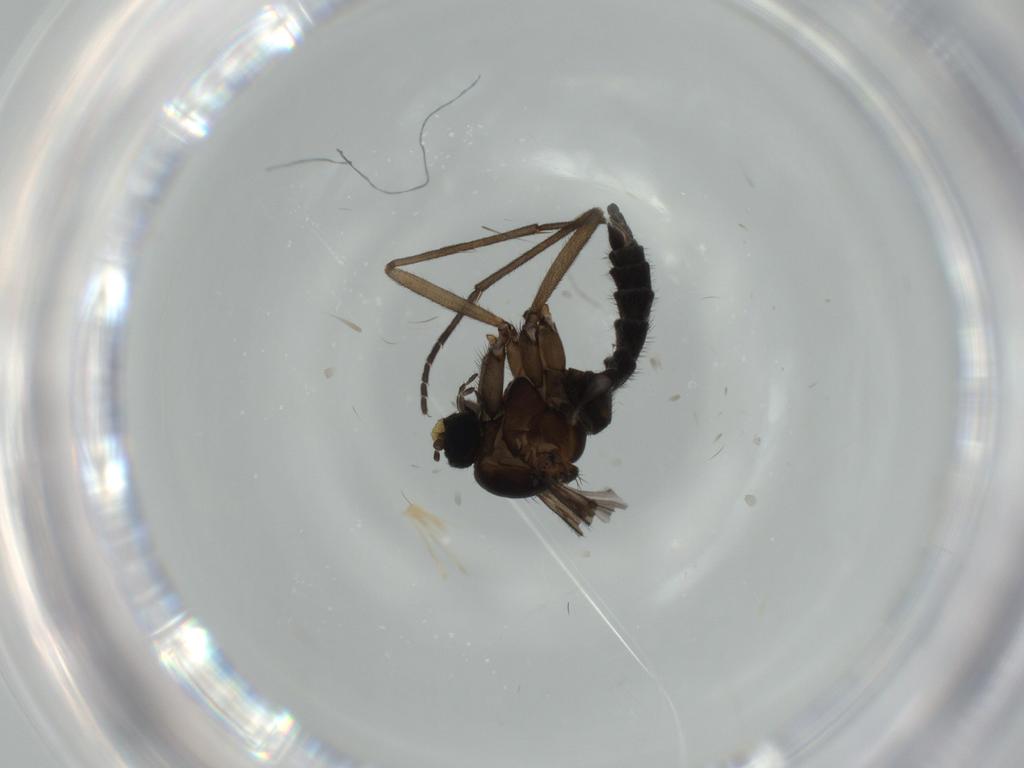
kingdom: Animalia
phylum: Arthropoda
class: Insecta
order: Diptera
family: Sciaridae
